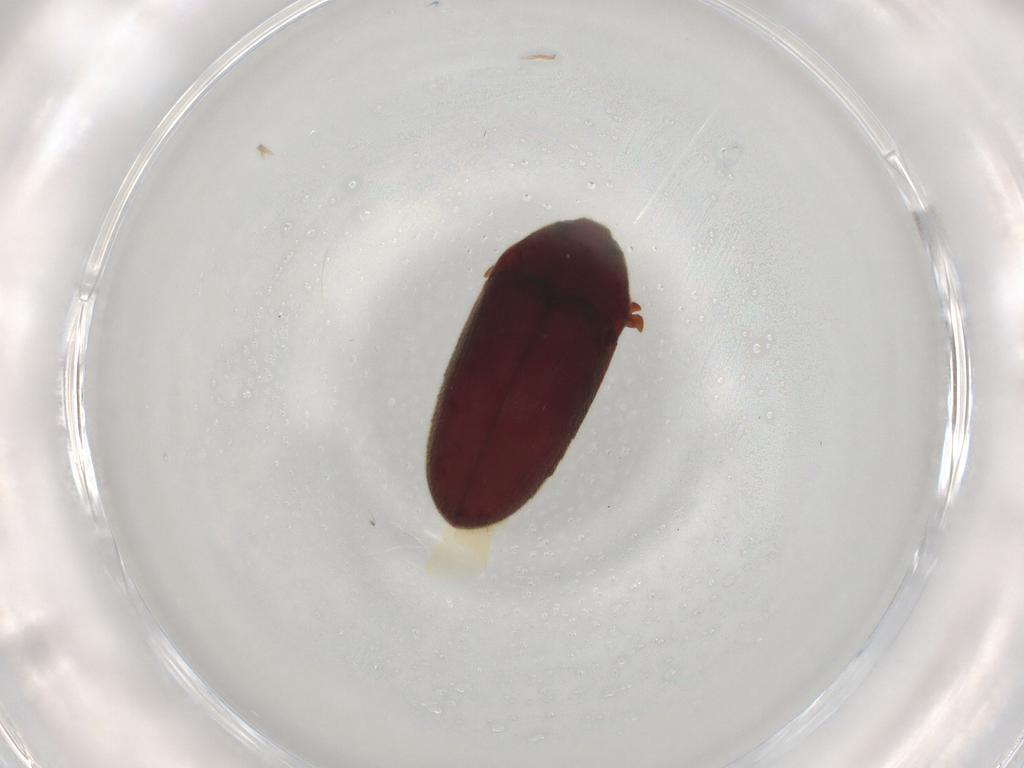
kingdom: Animalia
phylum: Arthropoda
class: Insecta
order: Coleoptera
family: Throscidae
